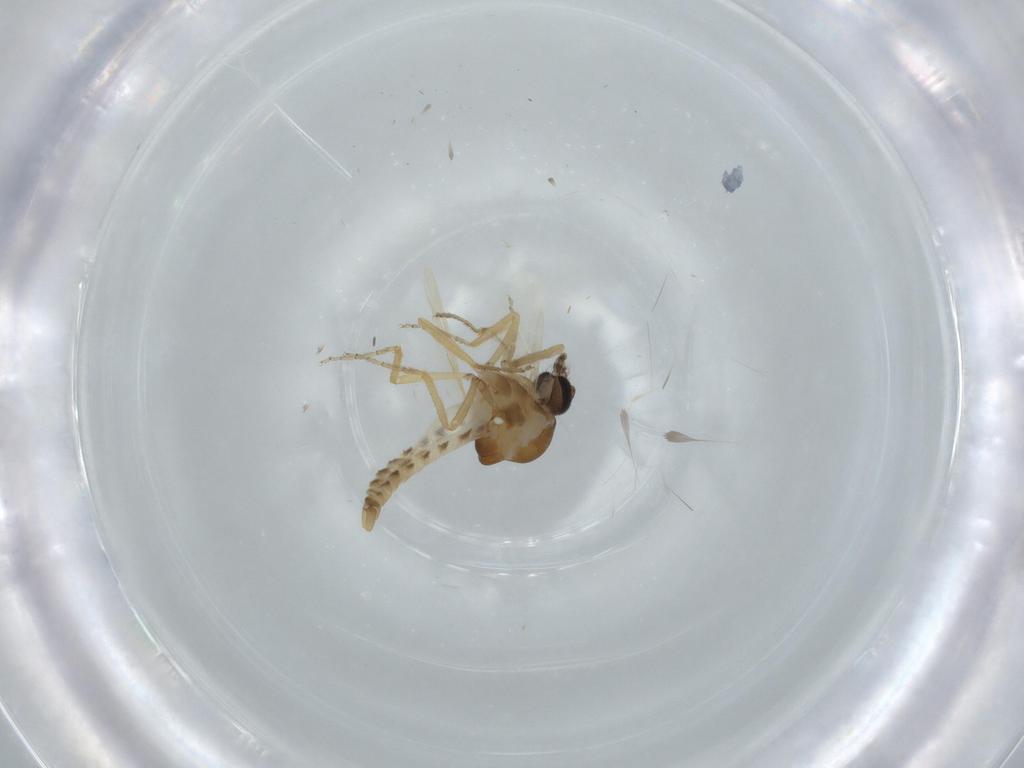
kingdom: Animalia
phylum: Arthropoda
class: Insecta
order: Diptera
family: Ceratopogonidae
